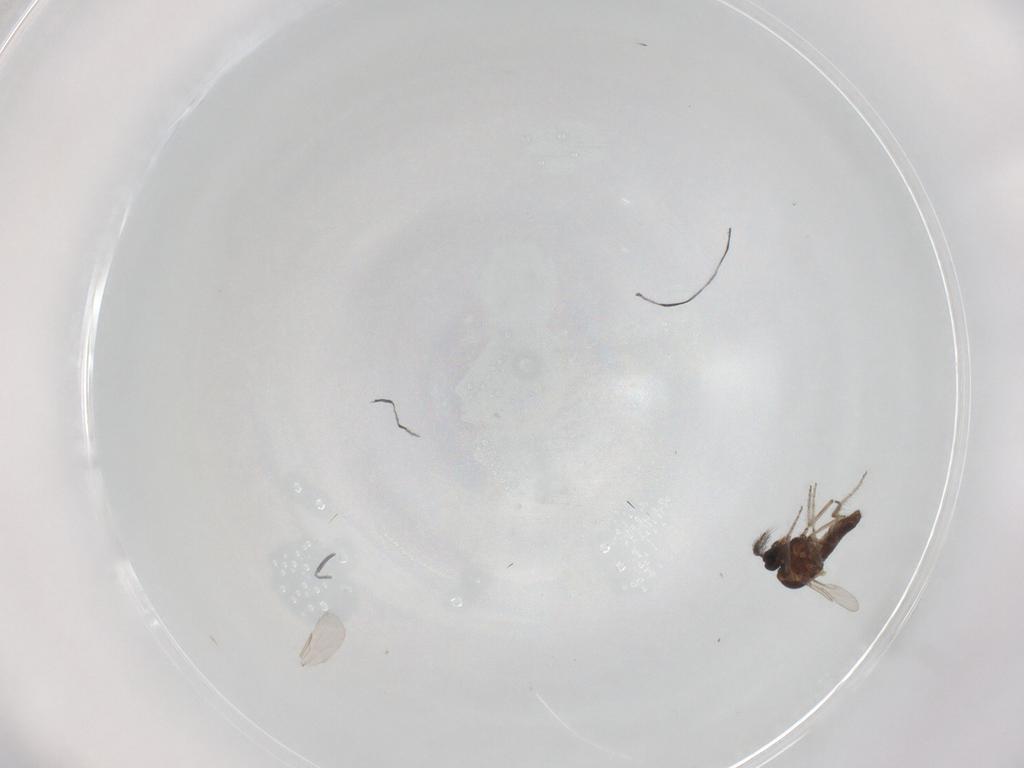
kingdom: Animalia
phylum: Arthropoda
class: Insecta
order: Diptera
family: Ceratopogonidae
